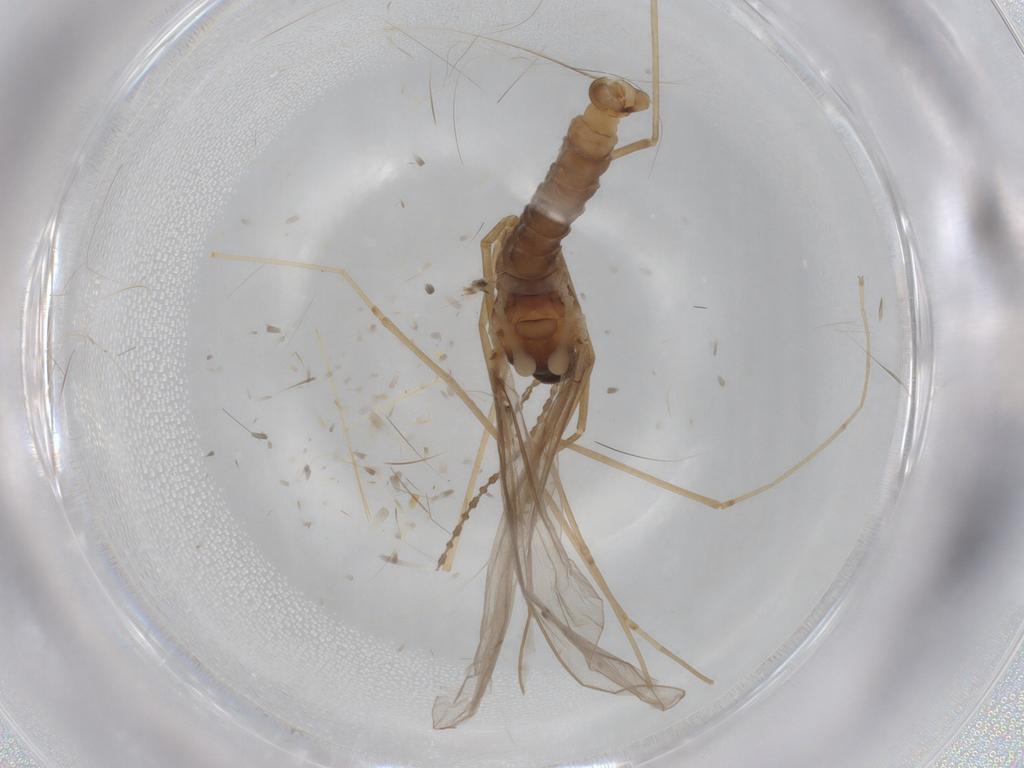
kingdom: Animalia
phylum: Arthropoda
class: Insecta
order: Diptera
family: Cecidomyiidae
